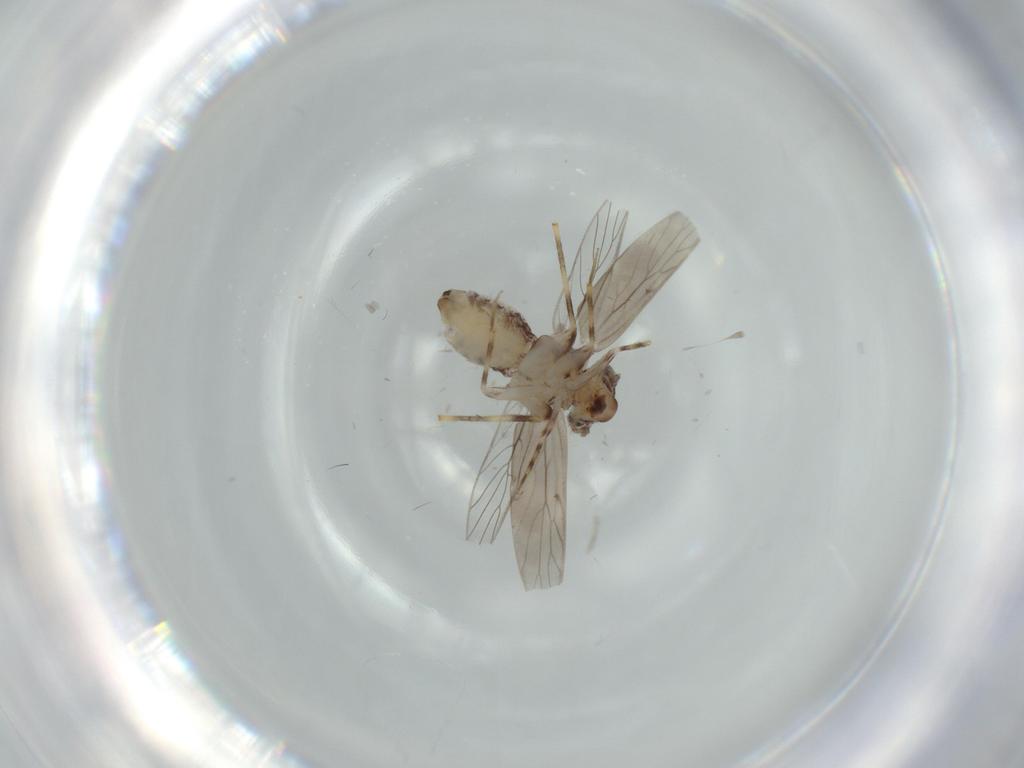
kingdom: Animalia
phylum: Arthropoda
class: Insecta
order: Psocodea
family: Lepidopsocidae
